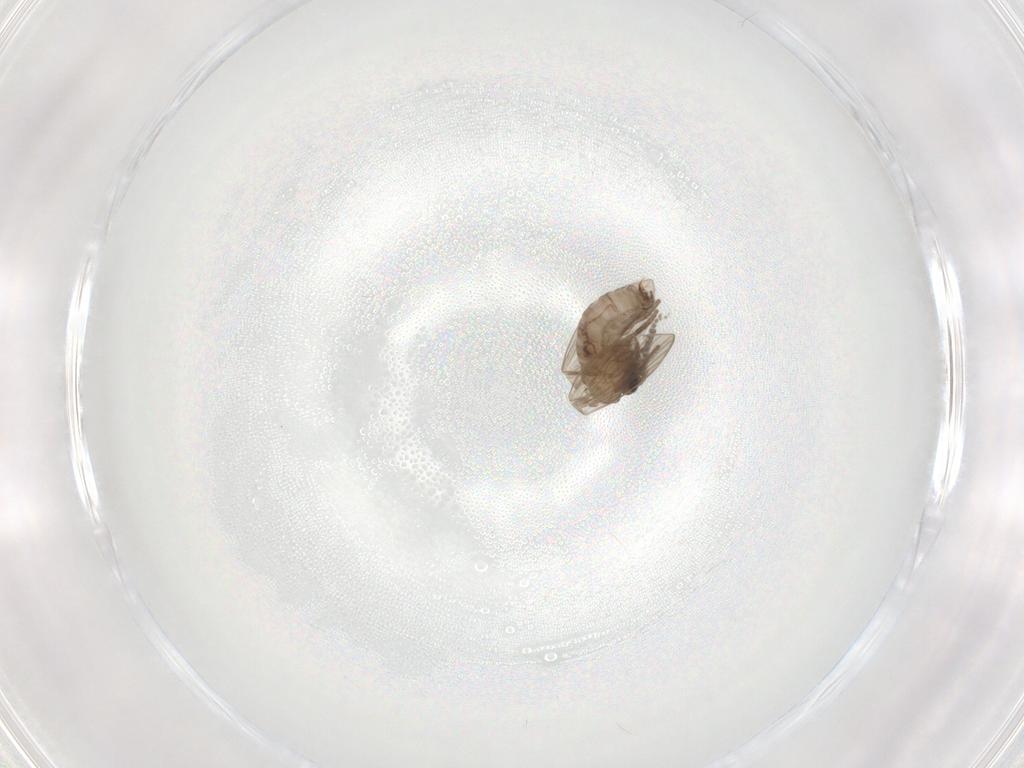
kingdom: Animalia
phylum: Arthropoda
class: Insecta
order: Diptera
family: Psychodidae
